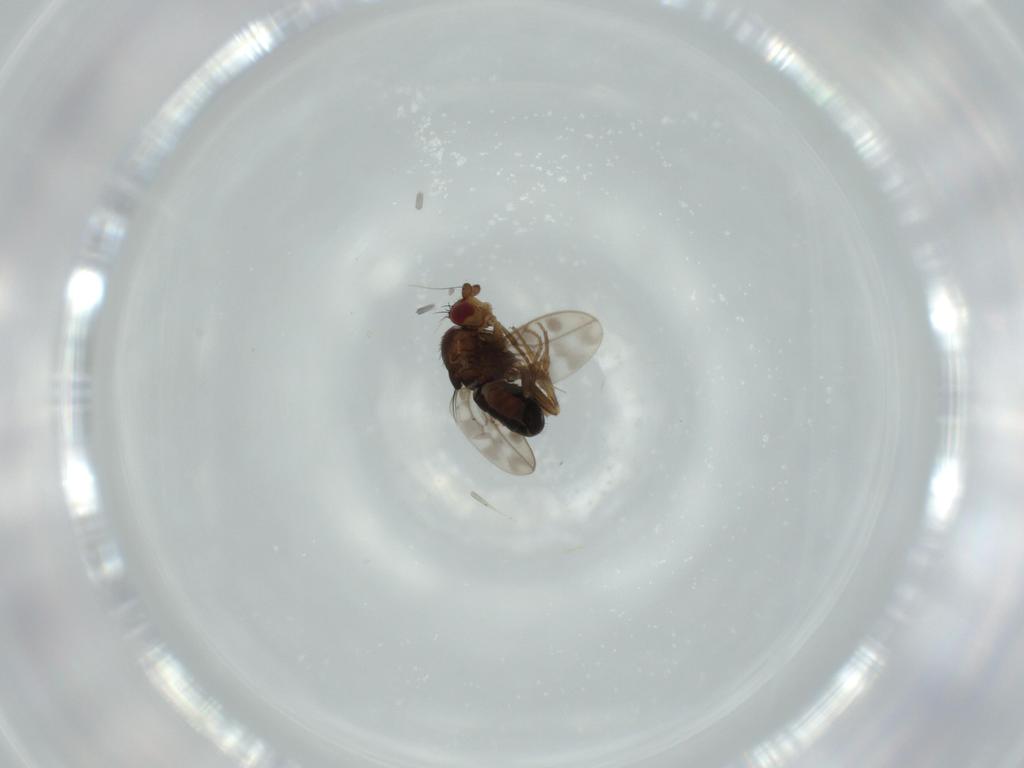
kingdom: Animalia
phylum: Arthropoda
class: Insecta
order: Diptera
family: Sphaeroceridae
